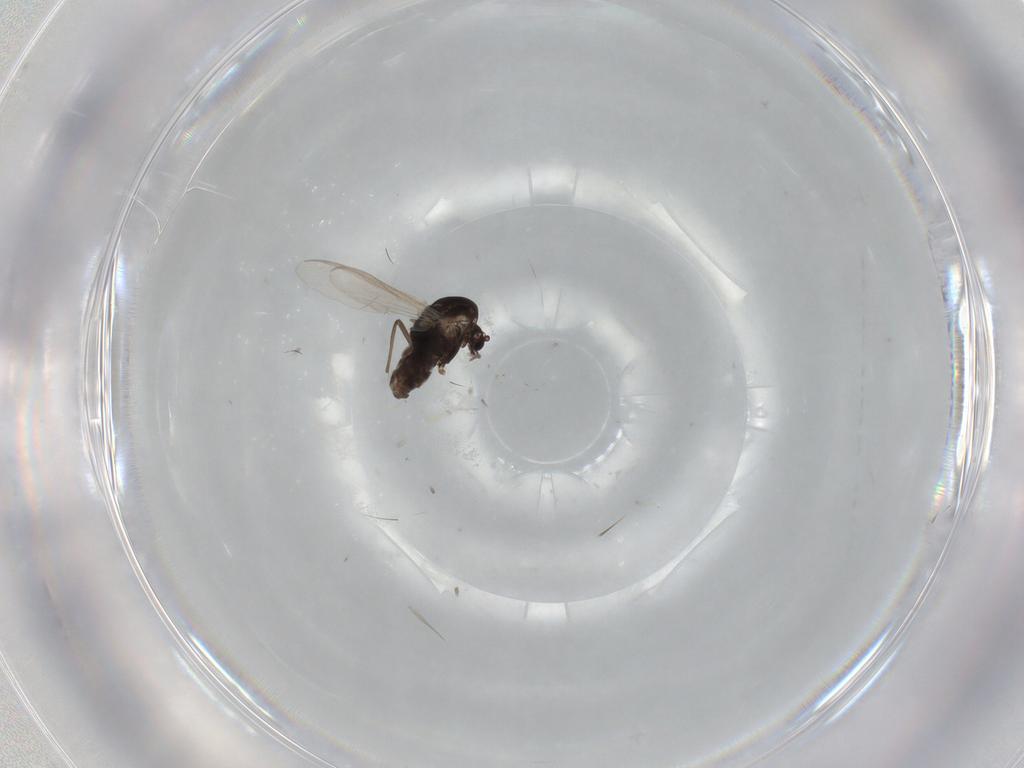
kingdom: Animalia
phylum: Arthropoda
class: Insecta
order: Diptera
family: Chironomidae
